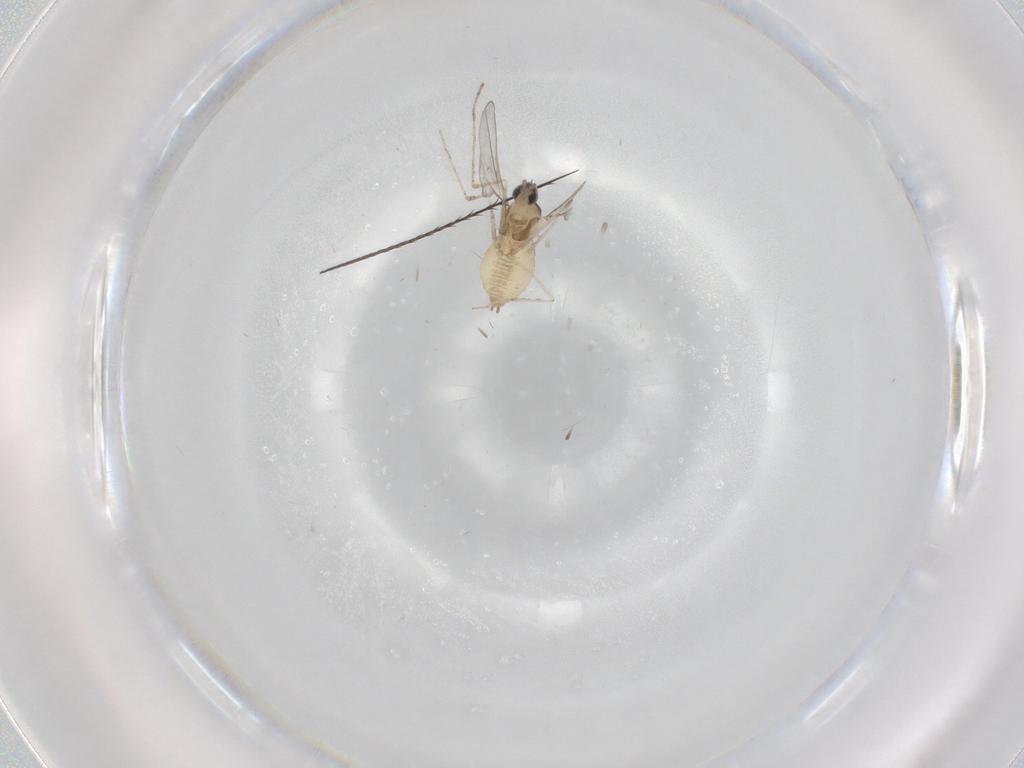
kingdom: Animalia
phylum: Arthropoda
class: Insecta
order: Diptera
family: Cecidomyiidae
